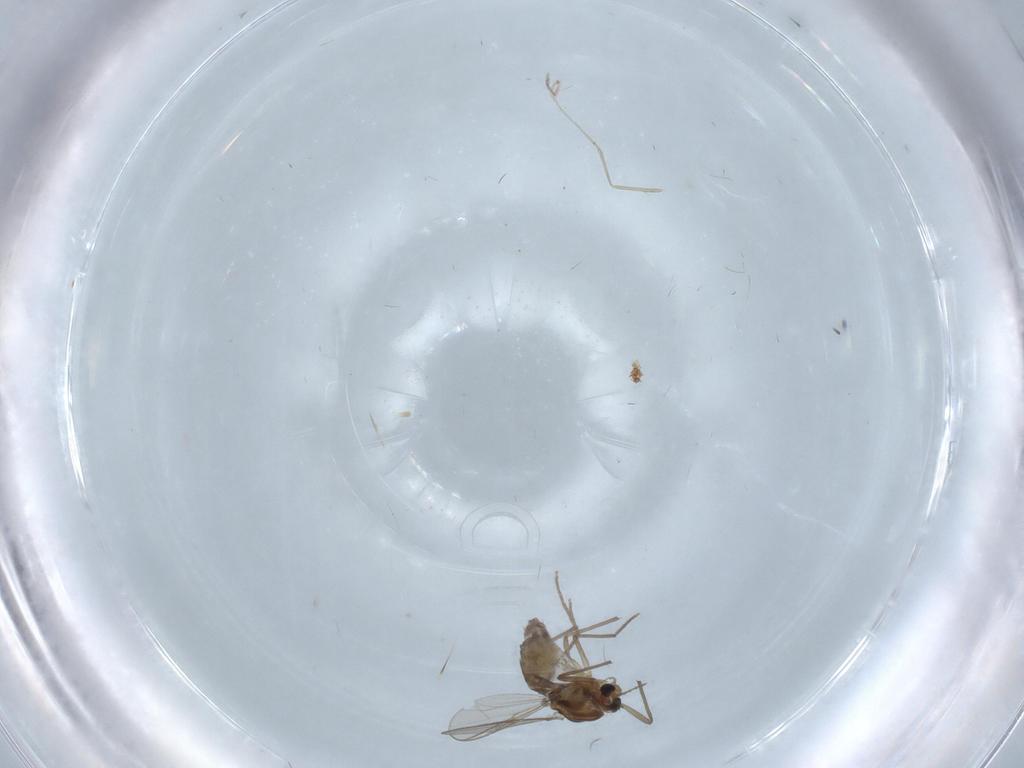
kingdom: Animalia
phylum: Arthropoda
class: Insecta
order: Diptera
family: Chironomidae
